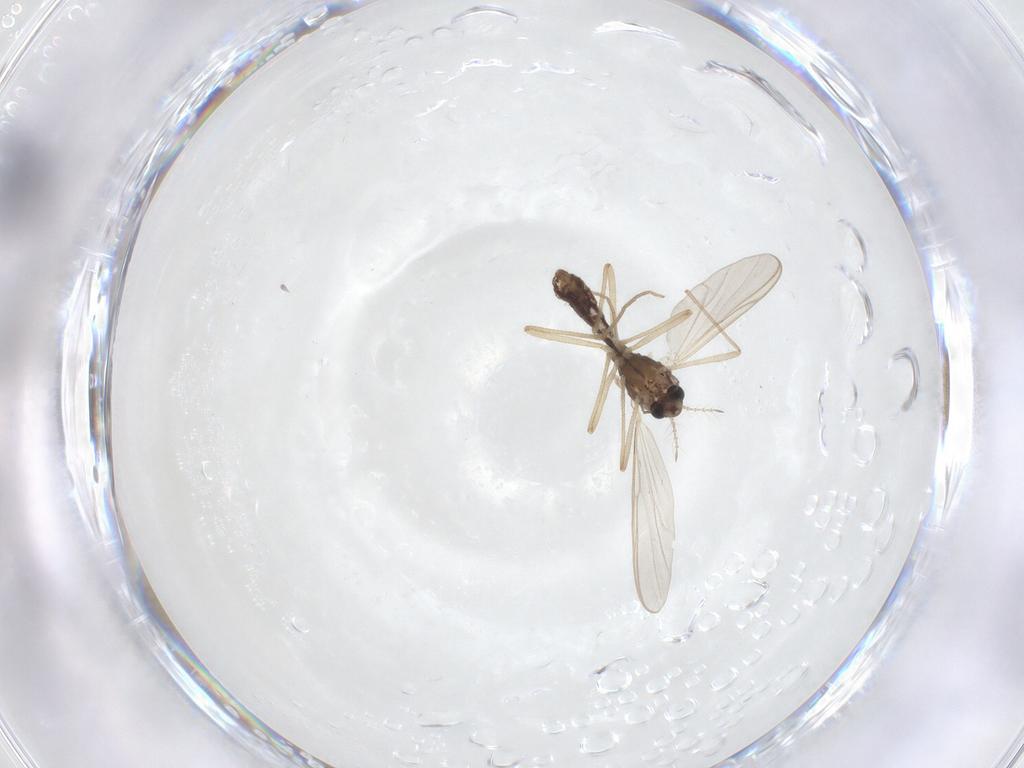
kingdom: Animalia
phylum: Arthropoda
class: Insecta
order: Diptera
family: Chironomidae
